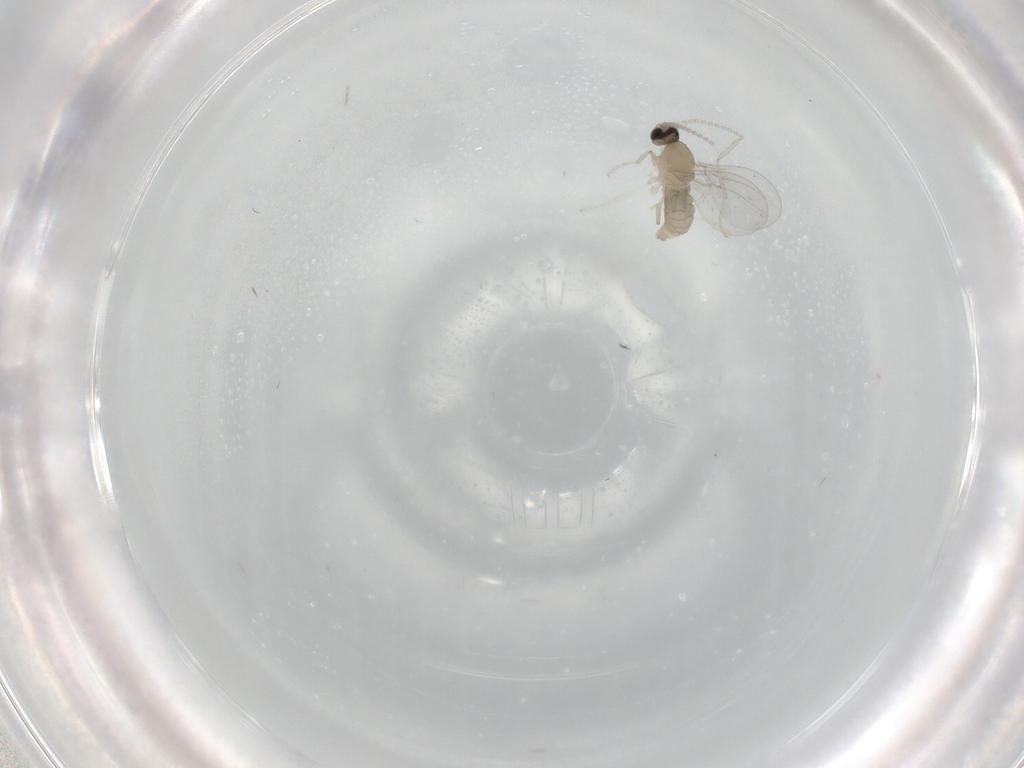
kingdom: Animalia
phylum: Arthropoda
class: Insecta
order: Diptera
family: Cecidomyiidae
